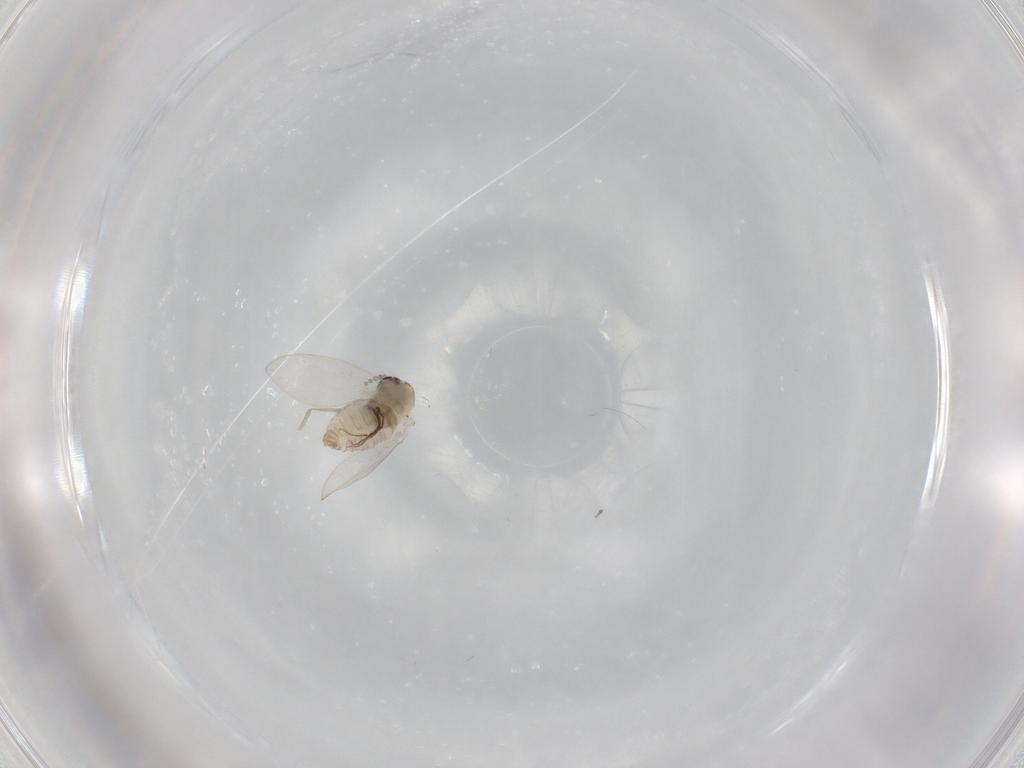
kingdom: Animalia
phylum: Arthropoda
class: Insecta
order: Diptera
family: Psychodidae
